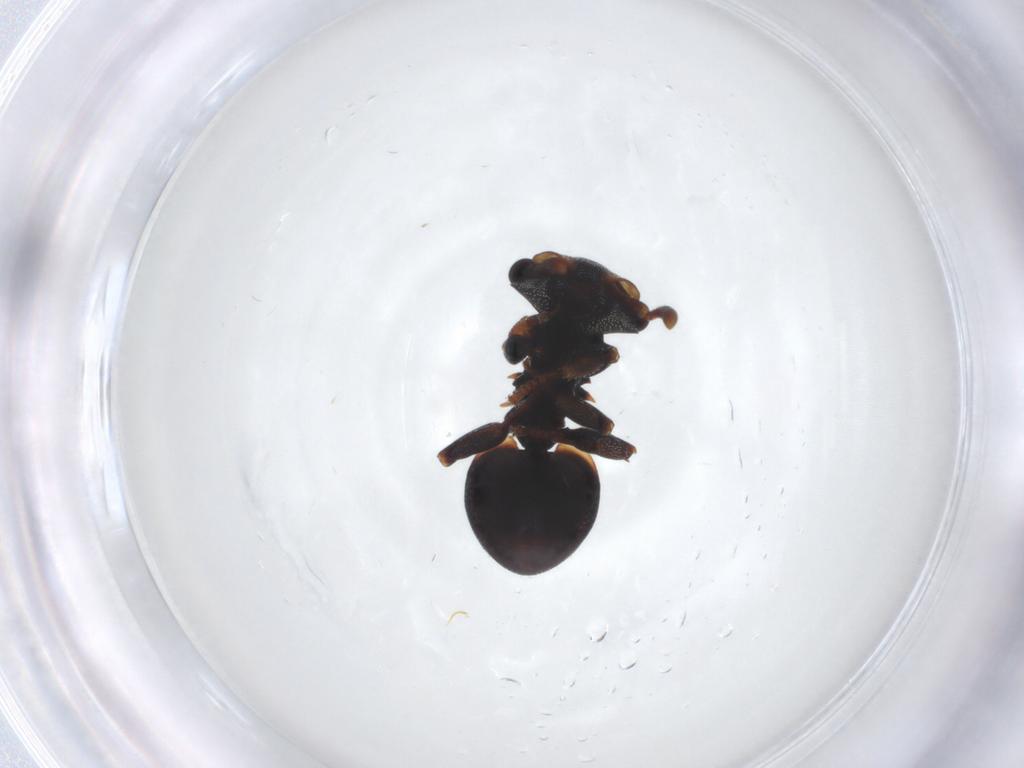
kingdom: Animalia
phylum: Arthropoda
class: Insecta
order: Hymenoptera
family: Formicidae
